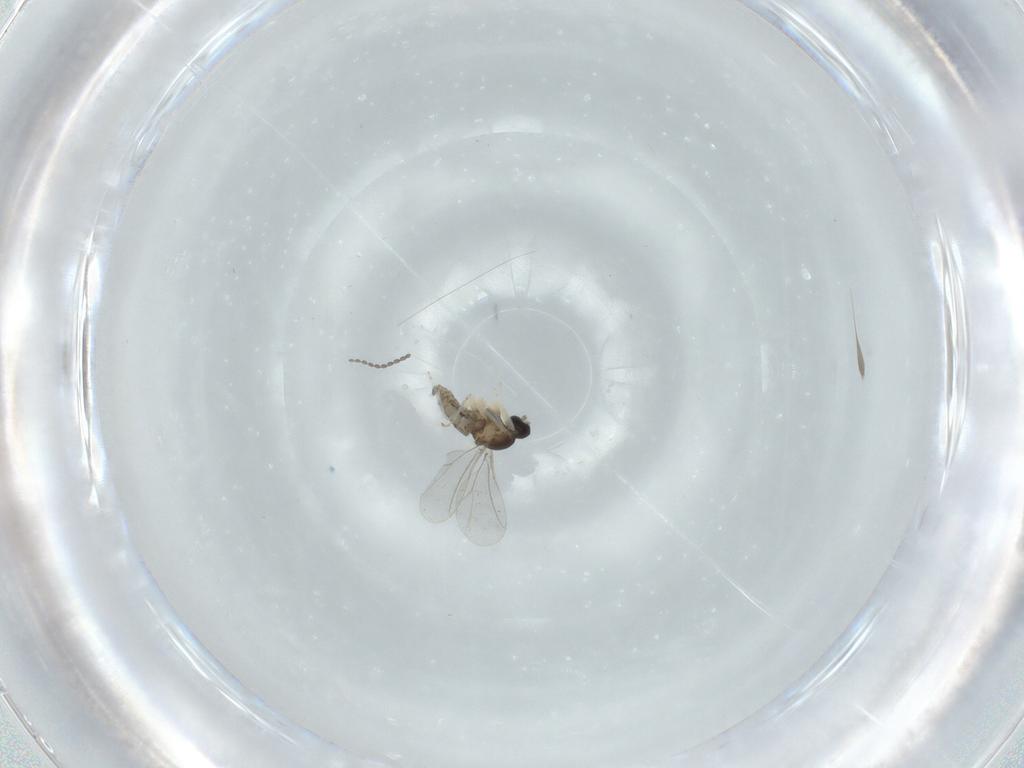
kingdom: Animalia
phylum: Arthropoda
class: Insecta
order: Diptera
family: Cecidomyiidae
